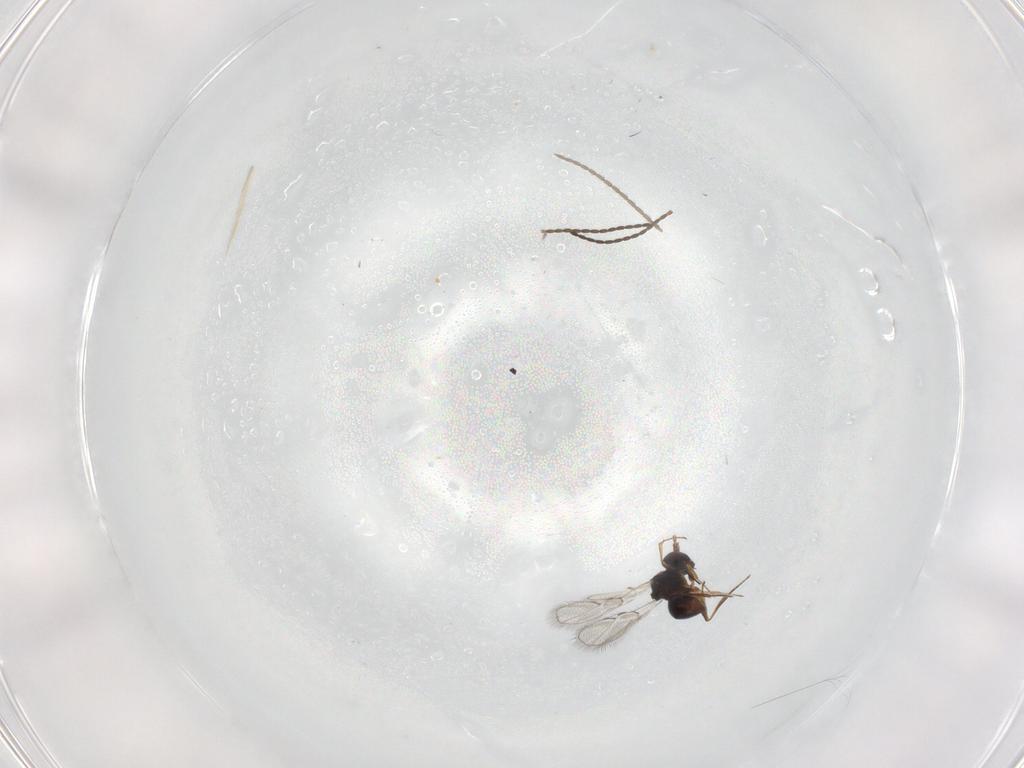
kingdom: Animalia
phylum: Arthropoda
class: Insecta
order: Hymenoptera
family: Figitidae
